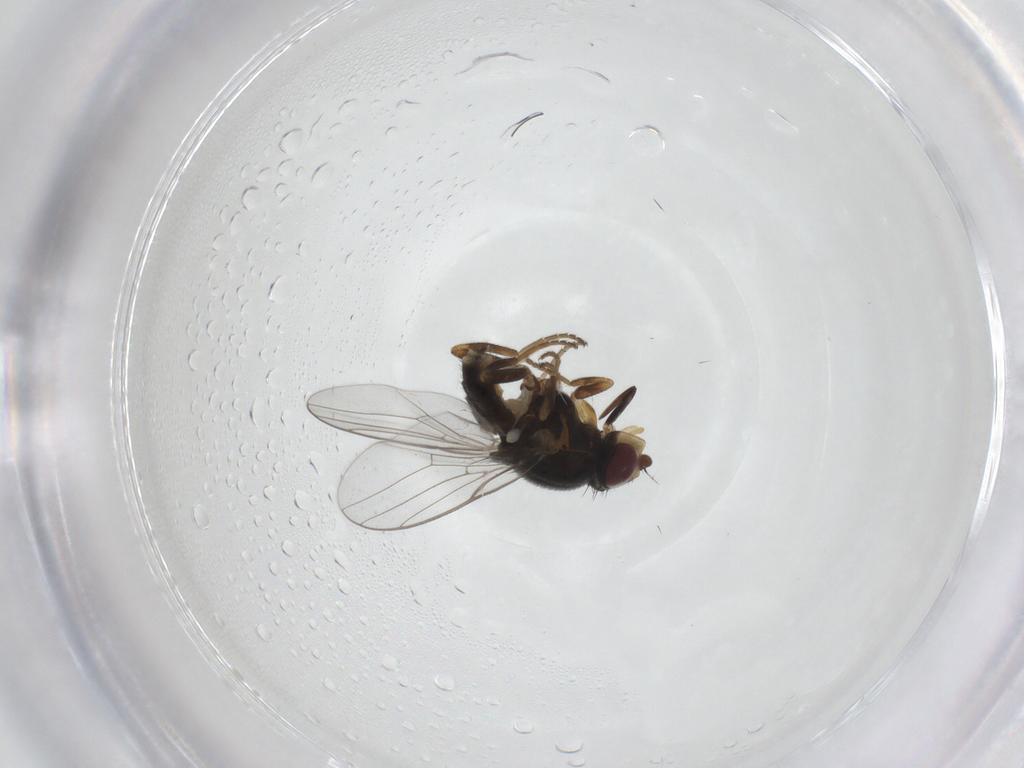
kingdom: Animalia
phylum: Arthropoda
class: Insecta
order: Diptera
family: Chloropidae
